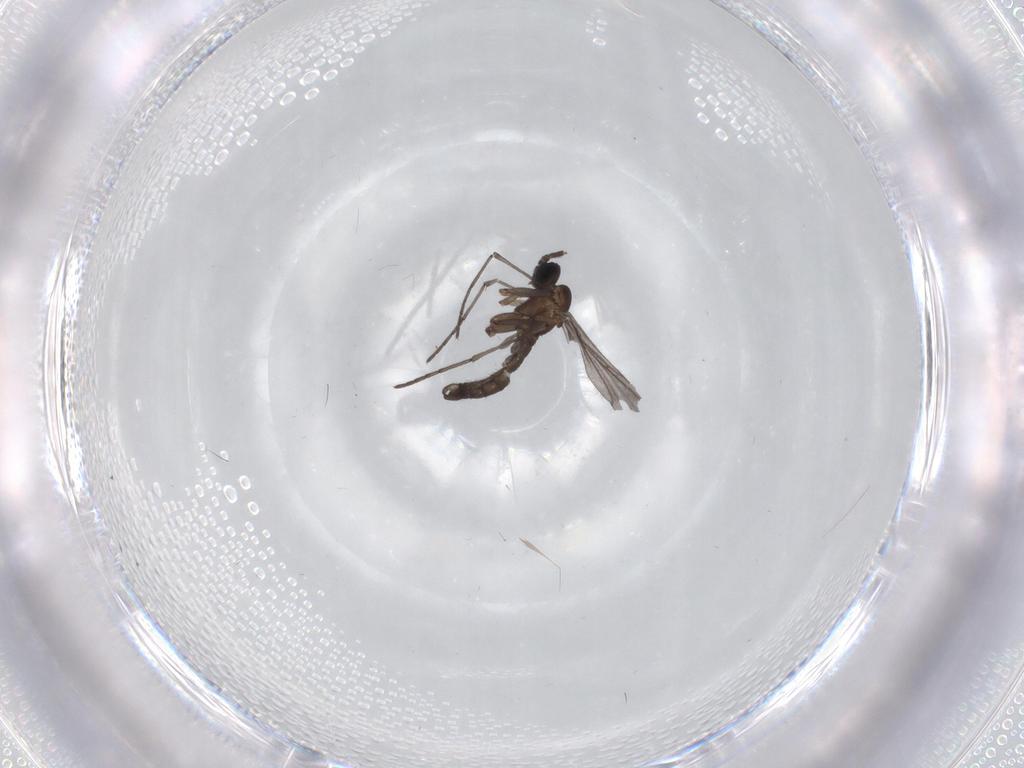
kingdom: Animalia
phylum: Arthropoda
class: Insecta
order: Diptera
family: Sciaridae
